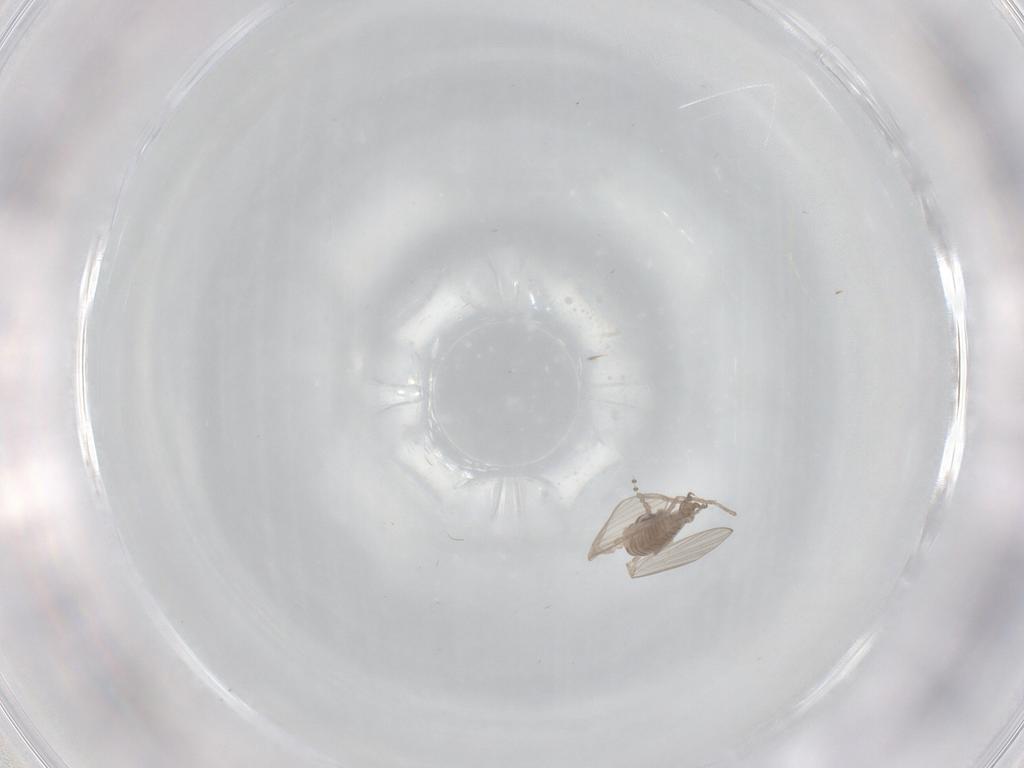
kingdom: Animalia
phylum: Arthropoda
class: Insecta
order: Diptera
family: Psychodidae
